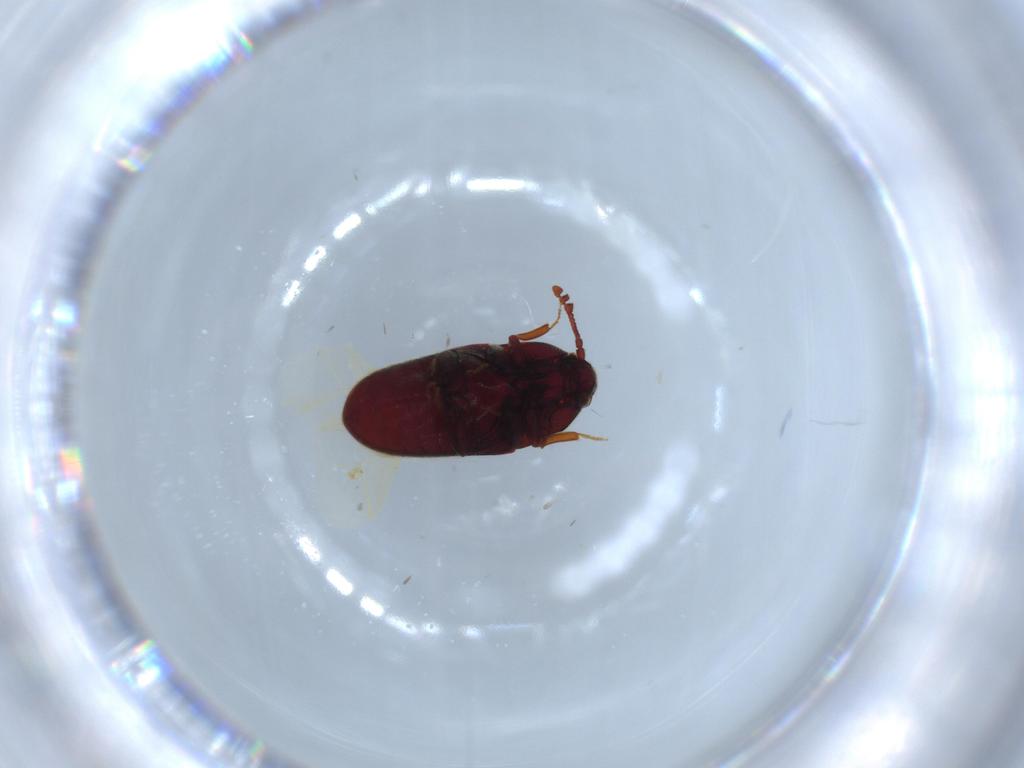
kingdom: Animalia
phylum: Arthropoda
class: Insecta
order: Coleoptera
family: Throscidae
